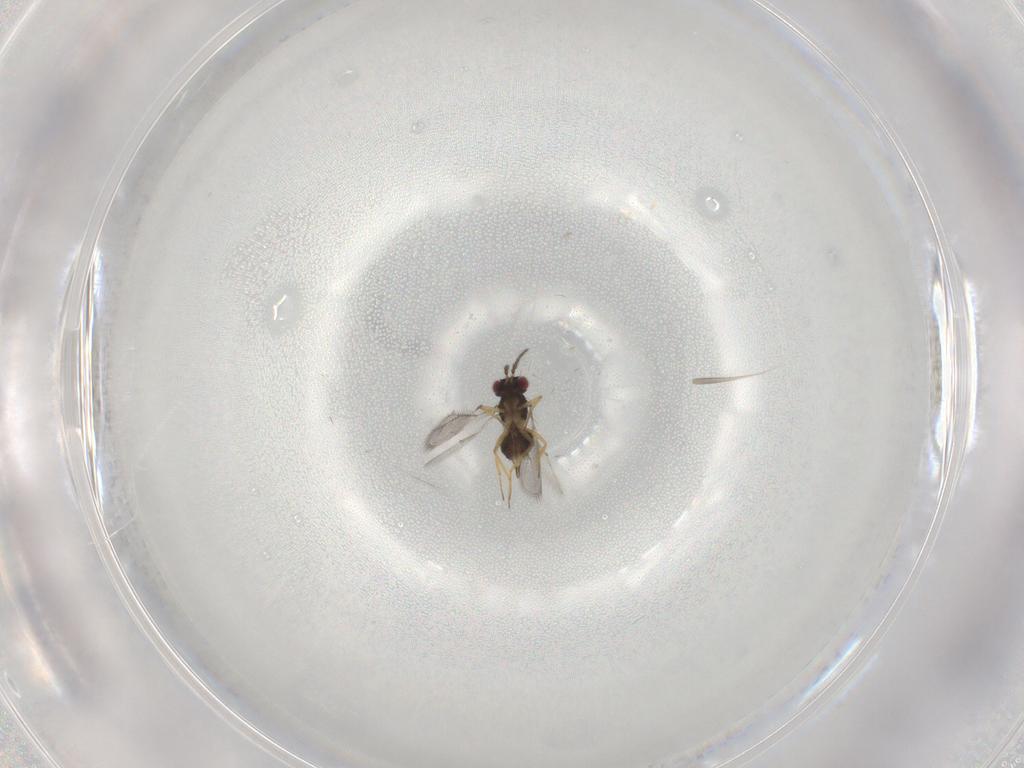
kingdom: Animalia
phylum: Arthropoda
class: Insecta
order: Hymenoptera
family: Eulophidae
